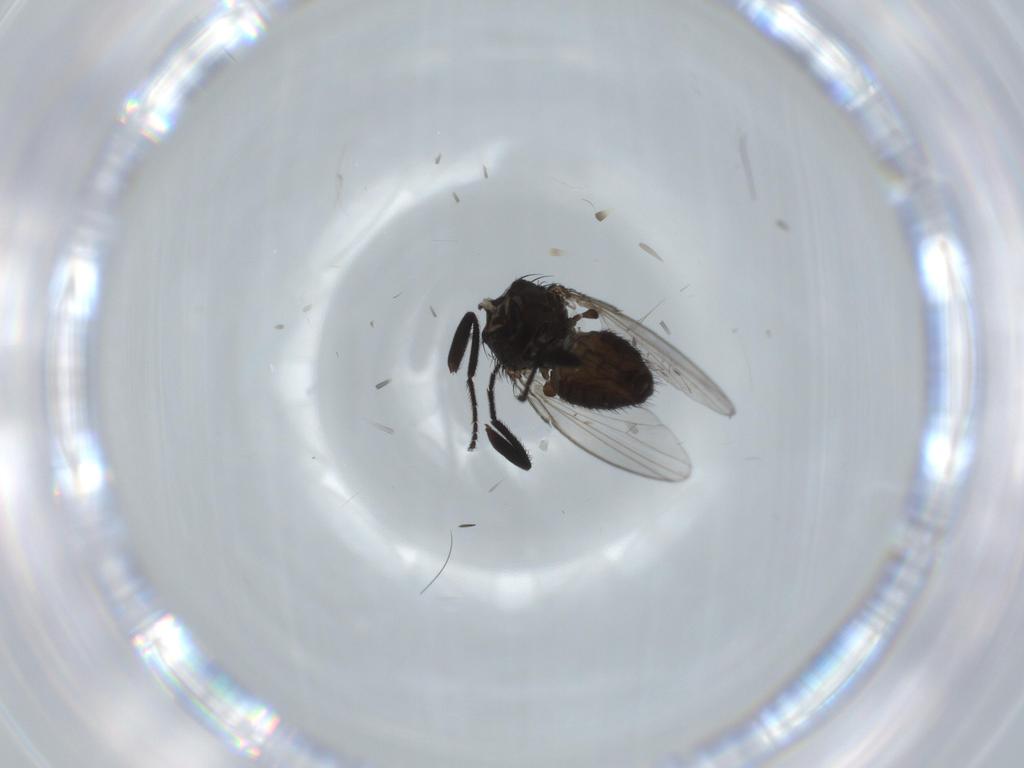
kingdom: Animalia
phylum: Arthropoda
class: Insecta
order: Diptera
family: Milichiidae
